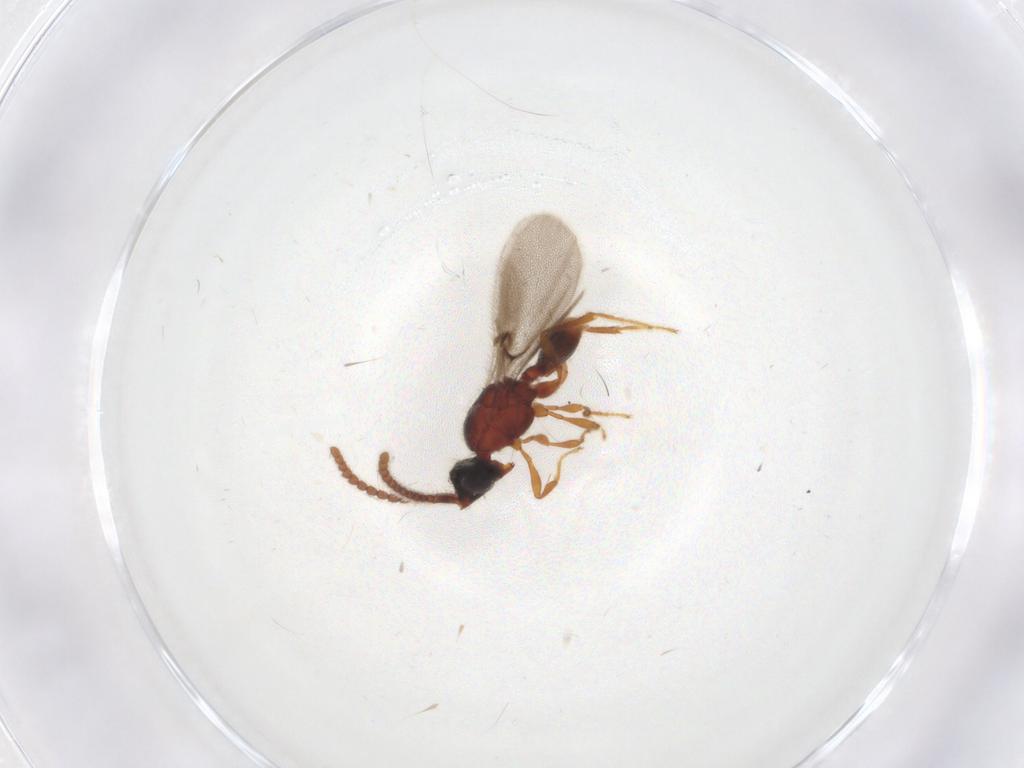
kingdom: Animalia
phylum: Arthropoda
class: Insecta
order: Hymenoptera
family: Diapriidae
